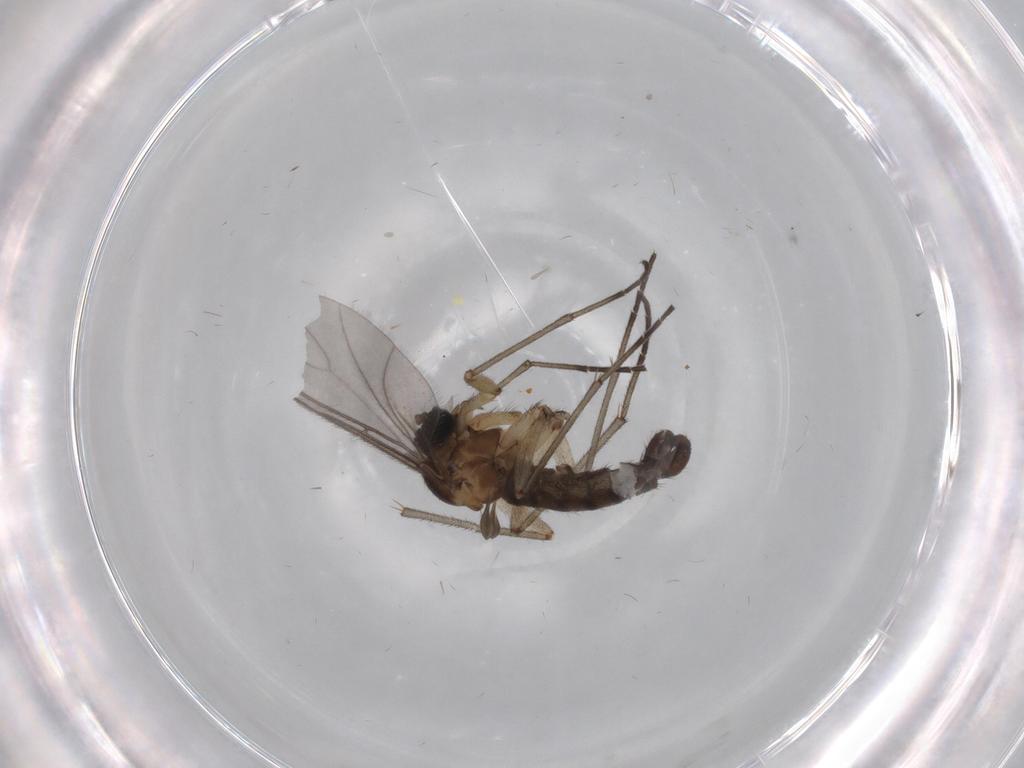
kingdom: Animalia
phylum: Arthropoda
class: Insecta
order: Diptera
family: Sciaridae
